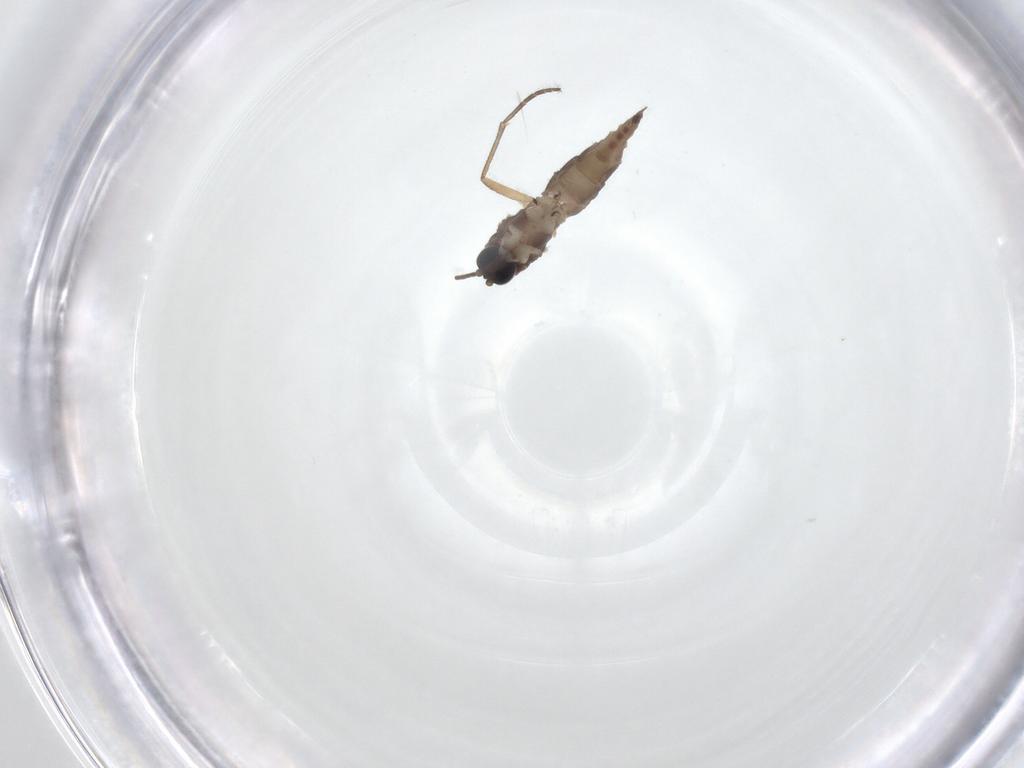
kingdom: Animalia
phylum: Arthropoda
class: Insecta
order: Diptera
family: Sciaridae
